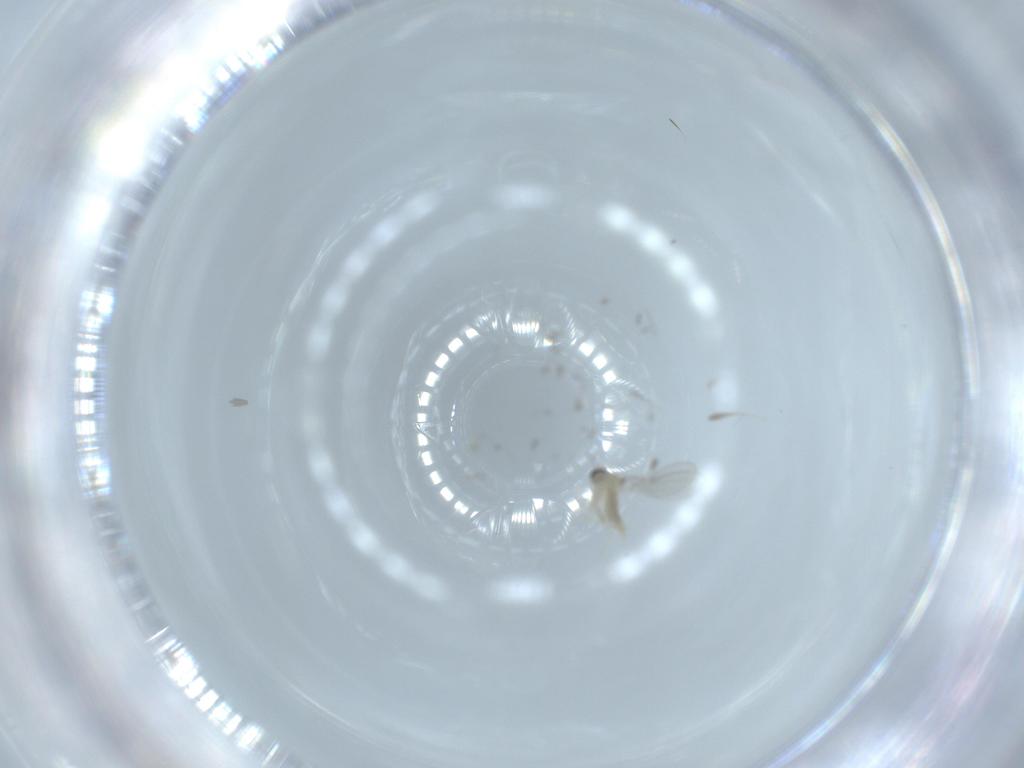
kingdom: Animalia
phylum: Arthropoda
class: Insecta
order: Diptera
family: Cecidomyiidae
